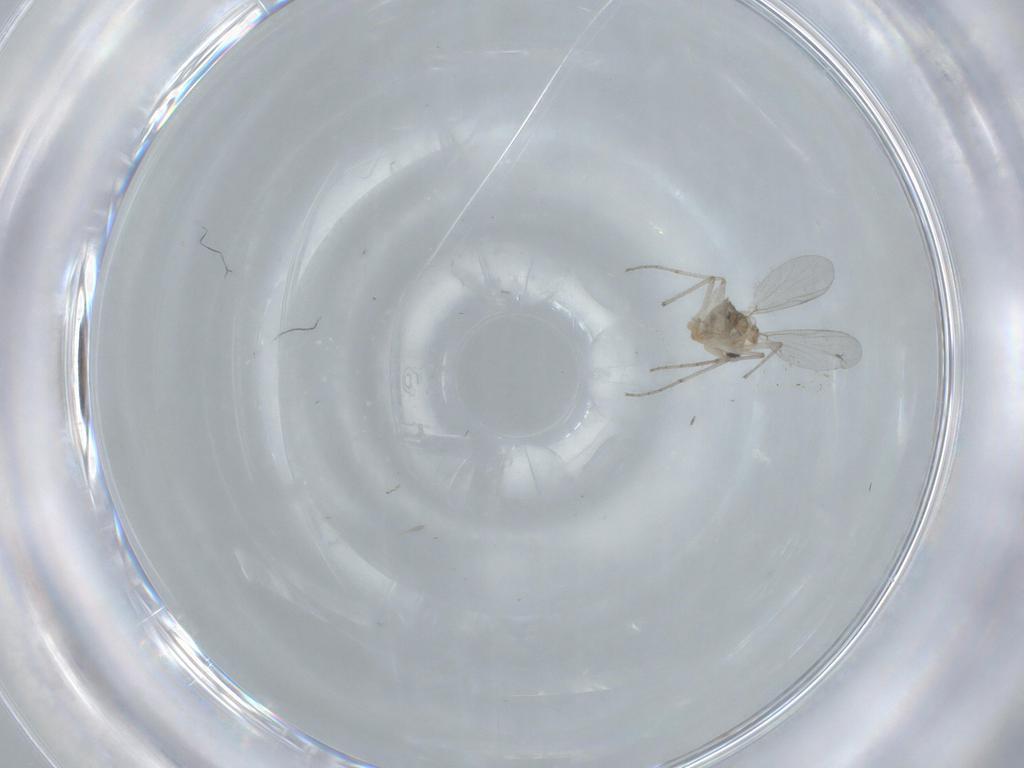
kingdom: Animalia
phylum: Arthropoda
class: Insecta
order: Diptera
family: Chironomidae
